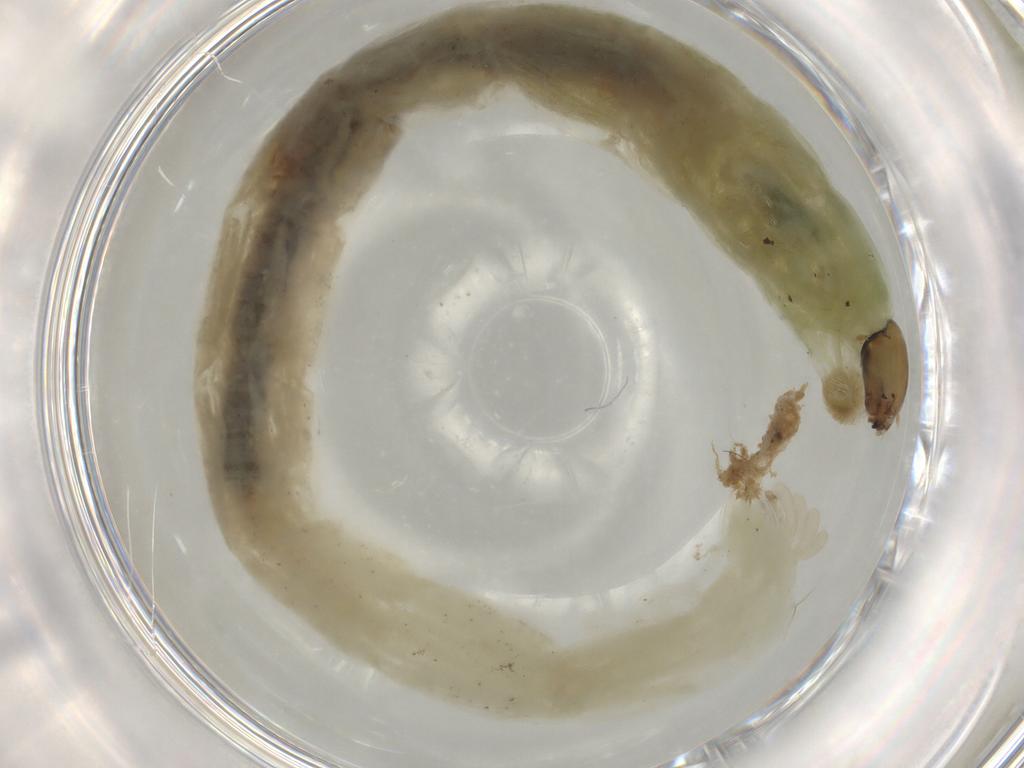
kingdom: Animalia
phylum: Arthropoda
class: Insecta
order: Diptera
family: Chironomidae
